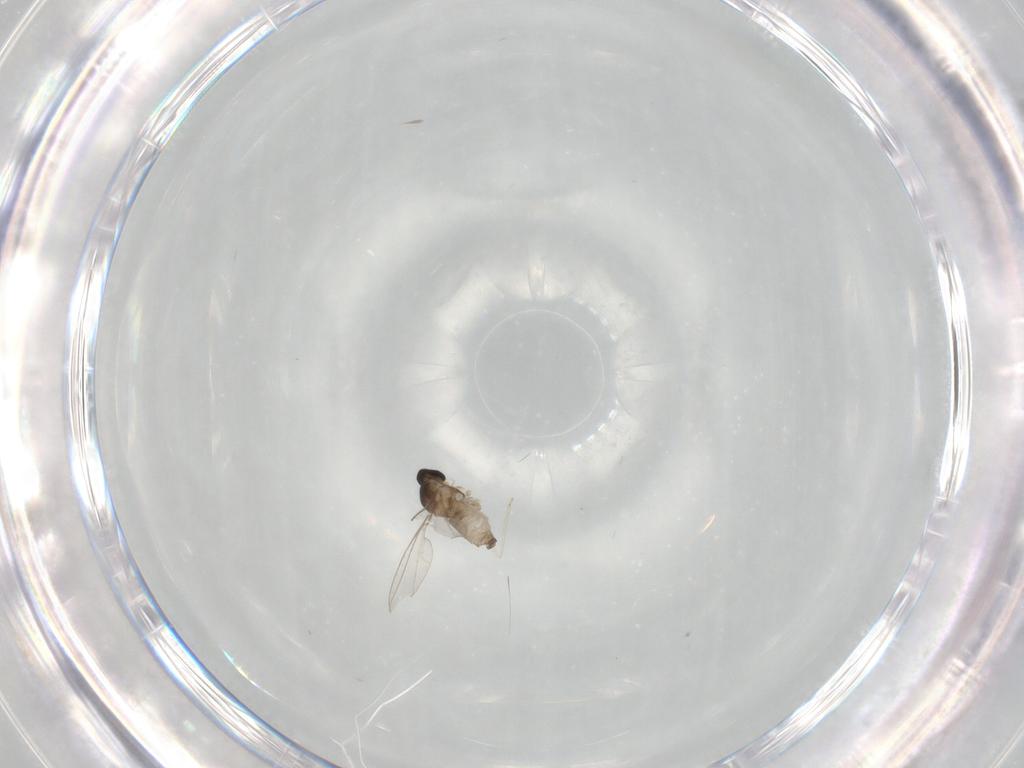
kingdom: Animalia
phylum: Arthropoda
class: Insecta
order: Diptera
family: Cecidomyiidae
